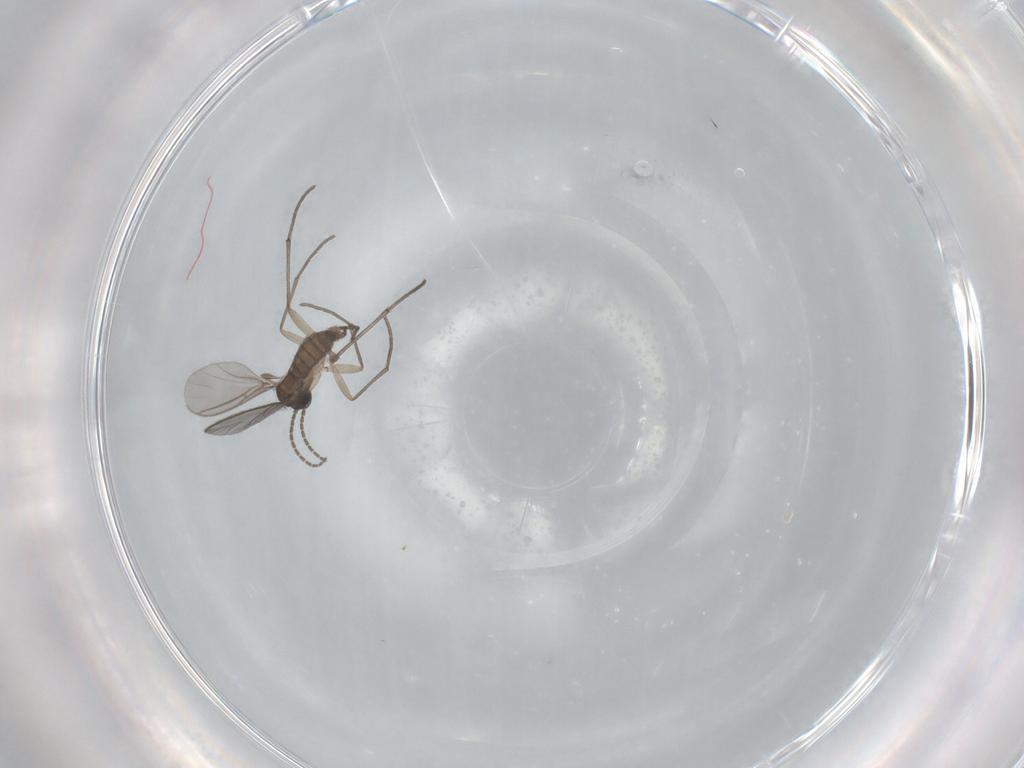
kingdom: Animalia
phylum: Arthropoda
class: Insecta
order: Diptera
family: Sciaridae
